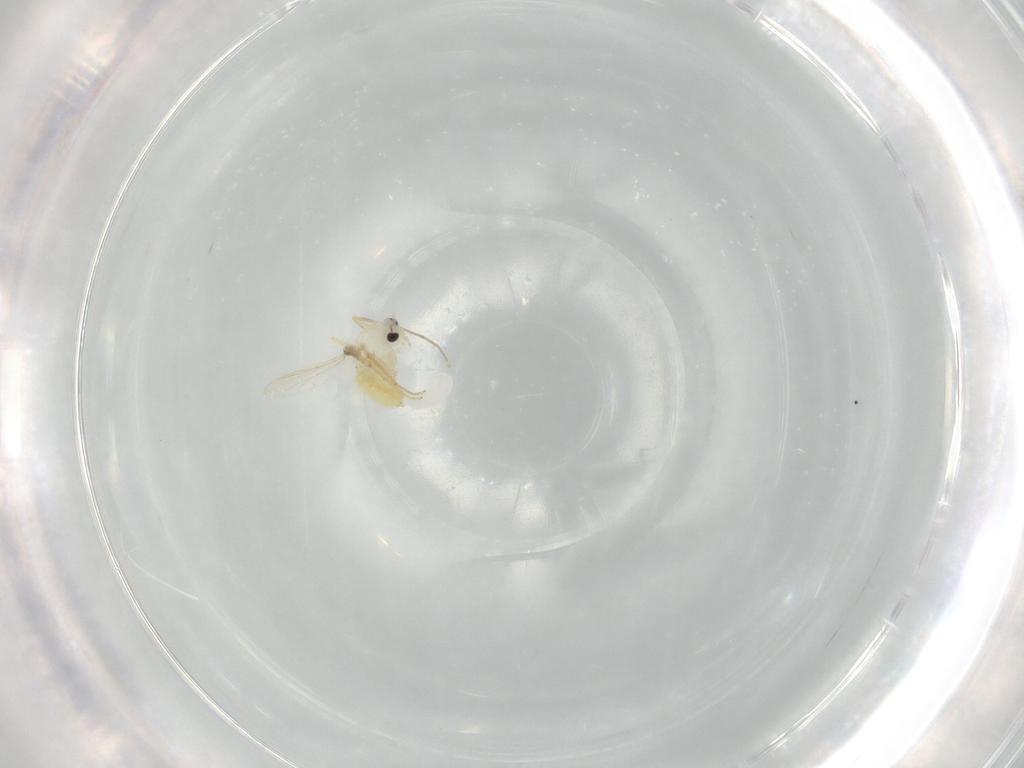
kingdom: Animalia
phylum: Arthropoda
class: Insecta
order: Diptera
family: Chironomidae
